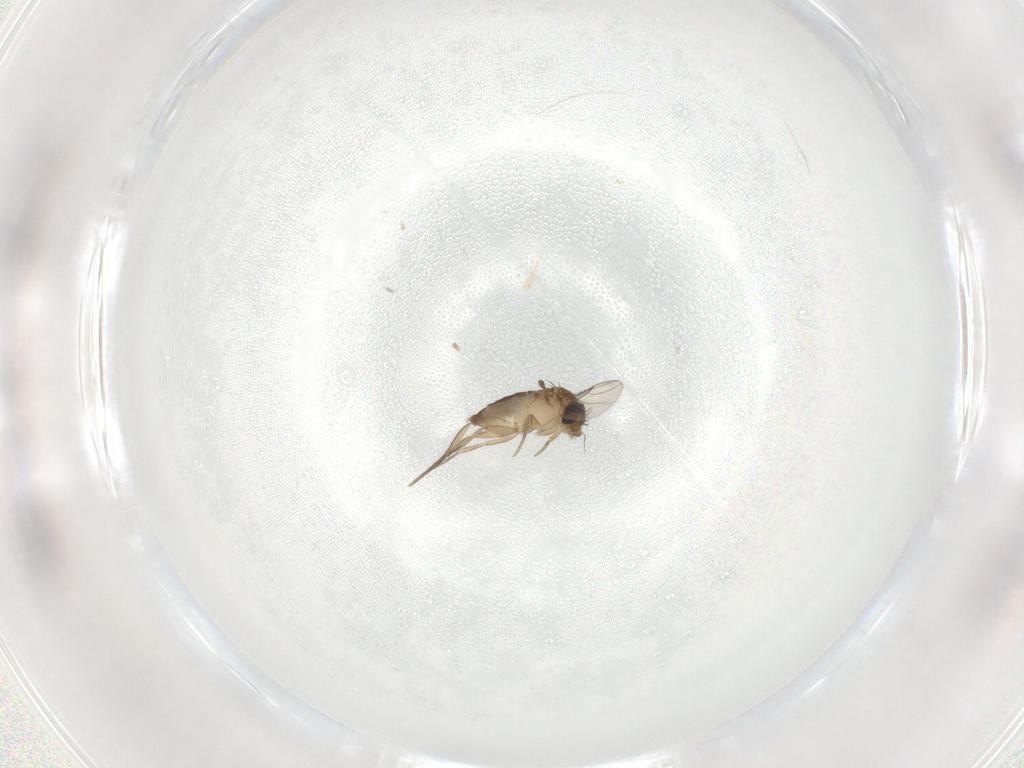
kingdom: Animalia
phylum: Arthropoda
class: Insecta
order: Diptera
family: Phoridae
